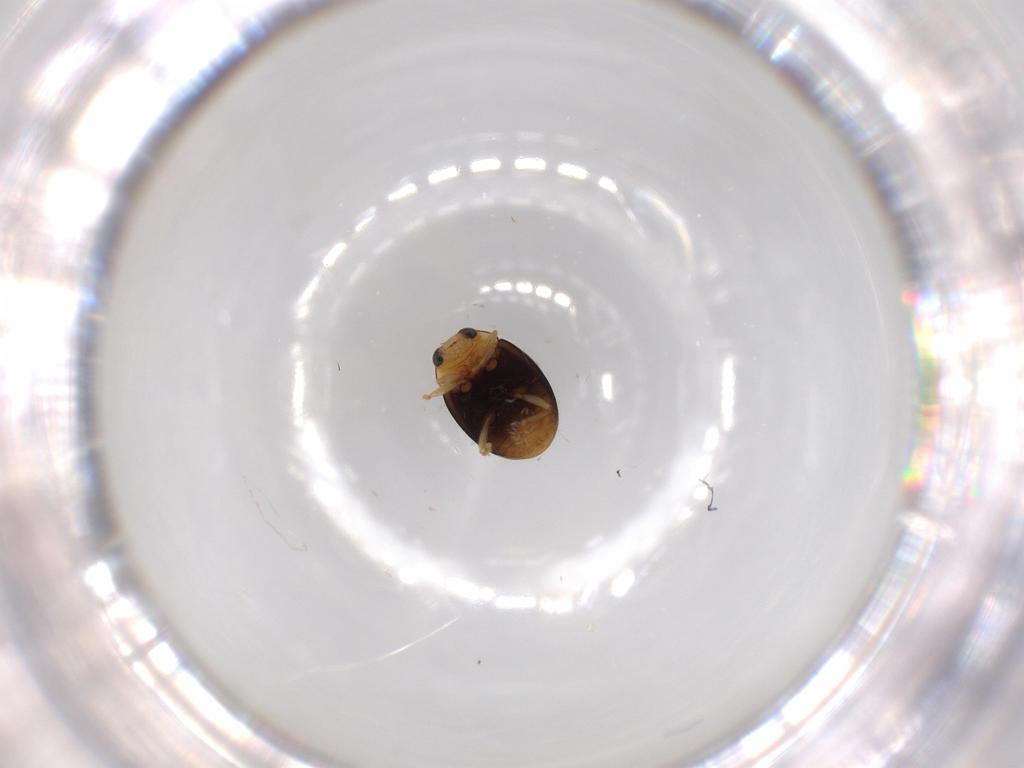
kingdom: Animalia
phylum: Arthropoda
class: Insecta
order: Coleoptera
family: Coccinellidae
